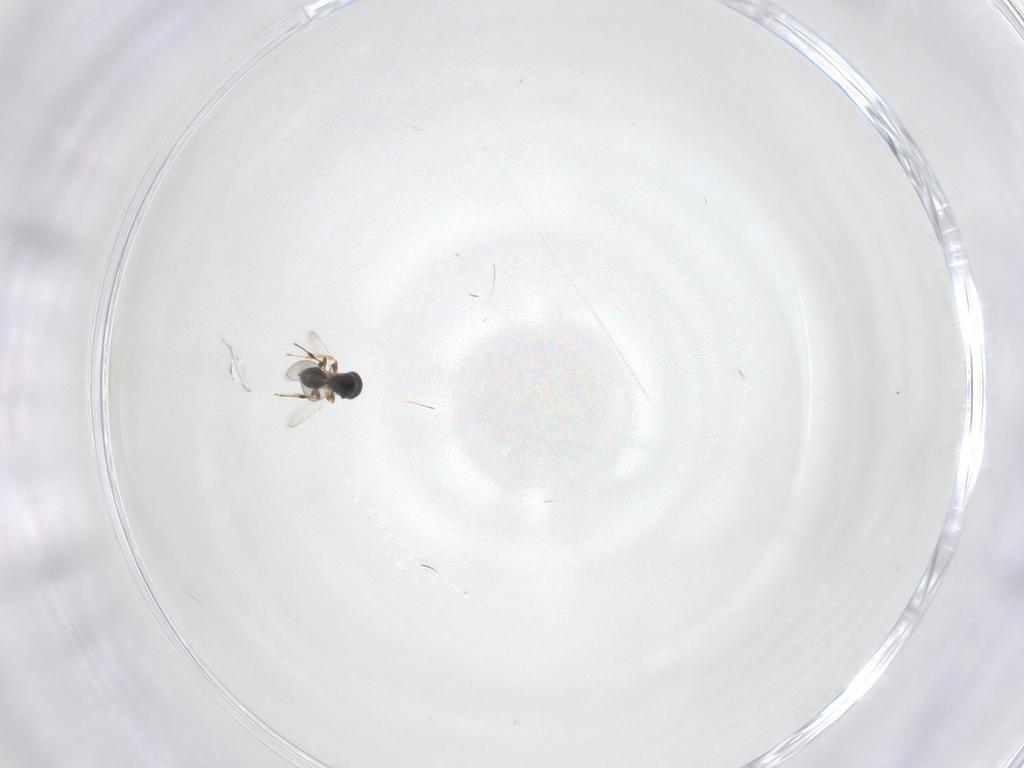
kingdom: Animalia
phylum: Arthropoda
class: Insecta
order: Hymenoptera
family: Platygastridae
